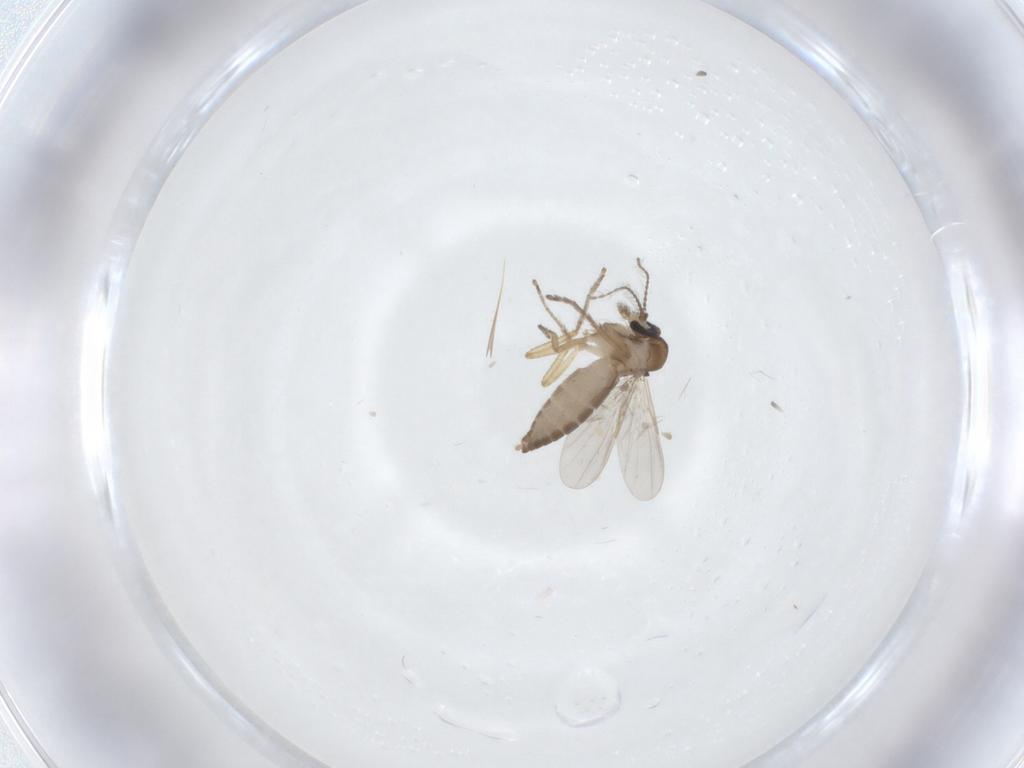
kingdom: Animalia
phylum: Arthropoda
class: Insecta
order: Diptera
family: Ceratopogonidae
